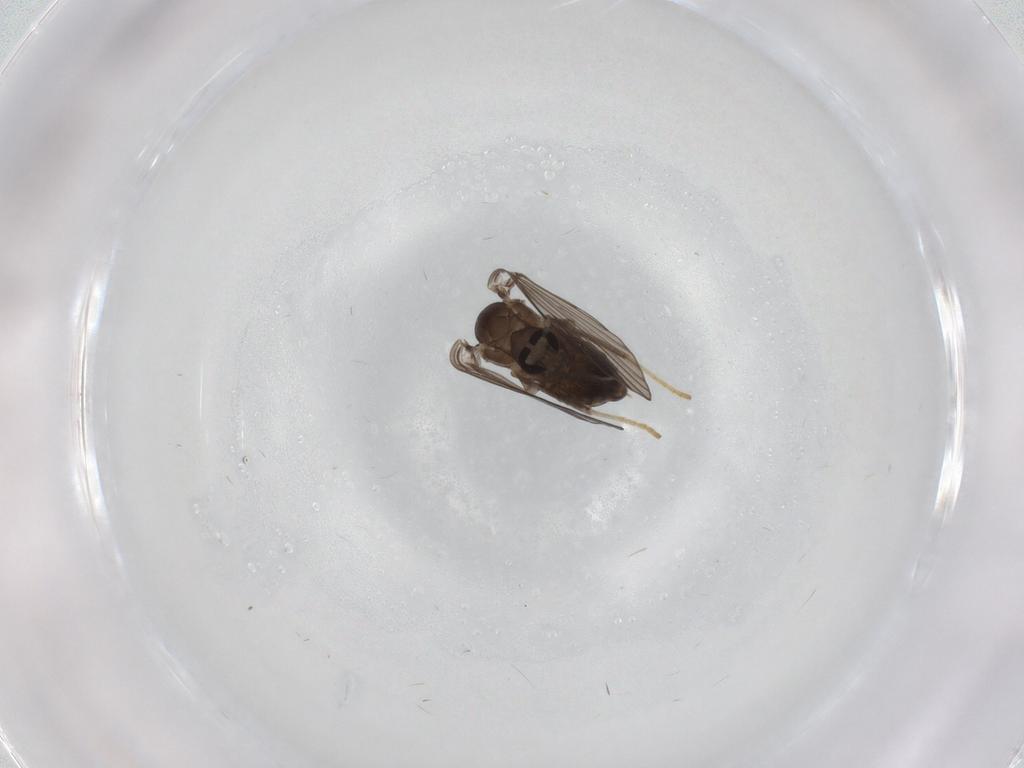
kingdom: Animalia
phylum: Arthropoda
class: Insecta
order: Diptera
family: Psychodidae
